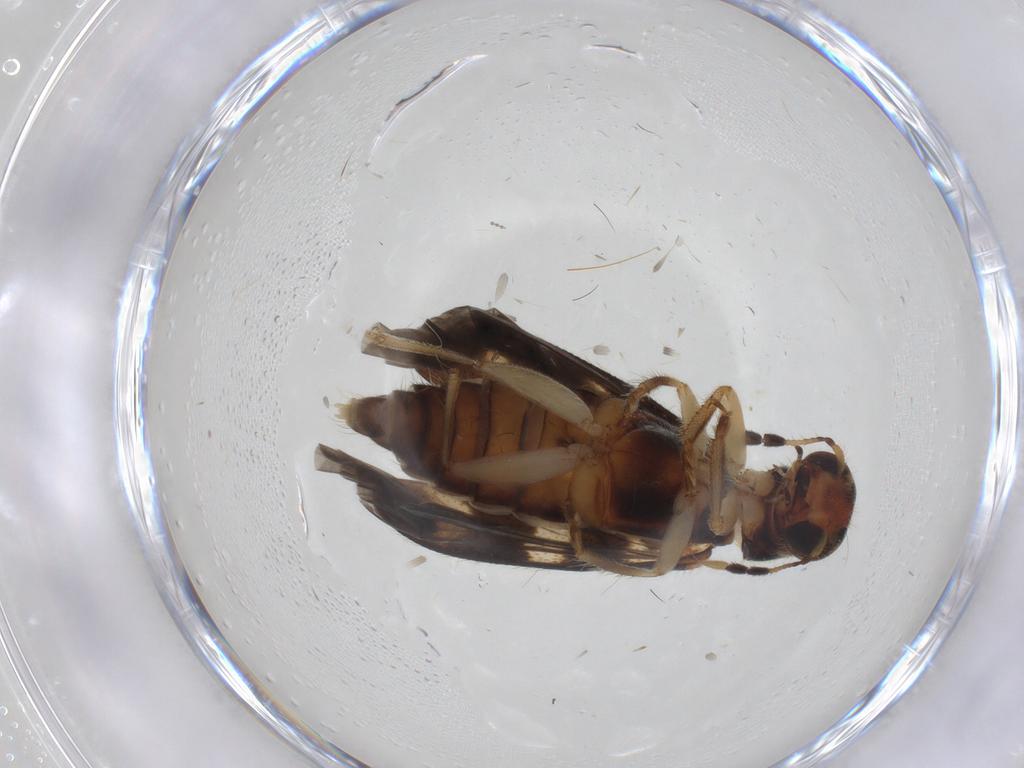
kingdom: Animalia
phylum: Arthropoda
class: Insecta
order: Coleoptera
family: Cleridae
